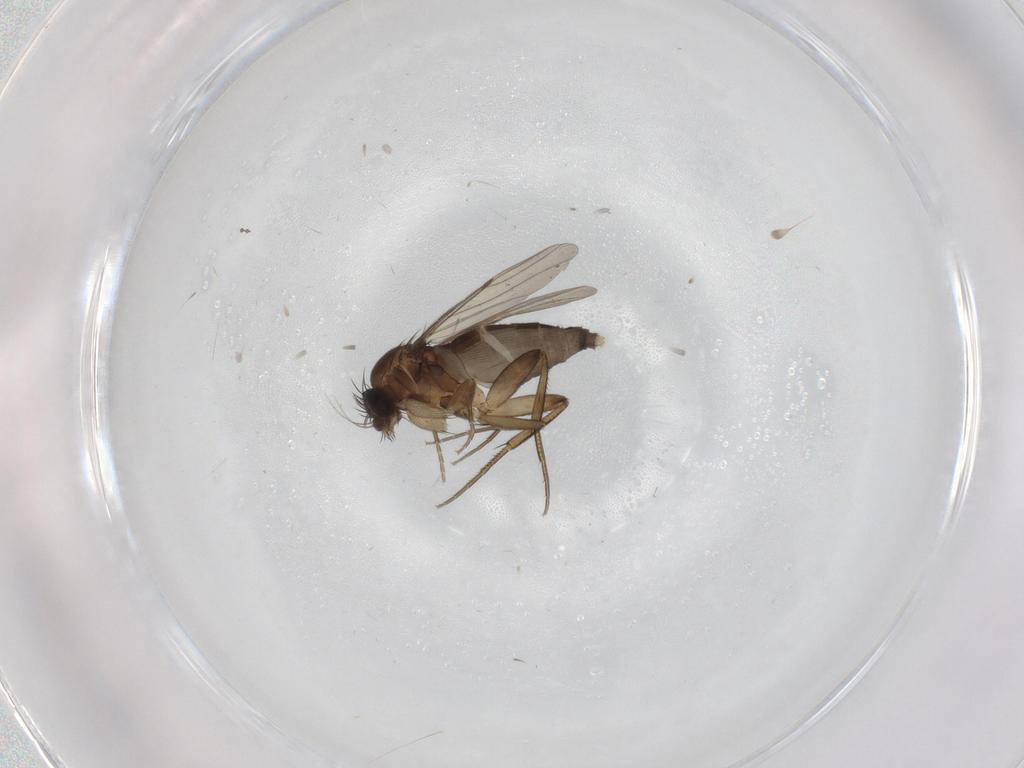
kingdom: Animalia
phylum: Arthropoda
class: Insecta
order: Diptera
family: Phoridae
